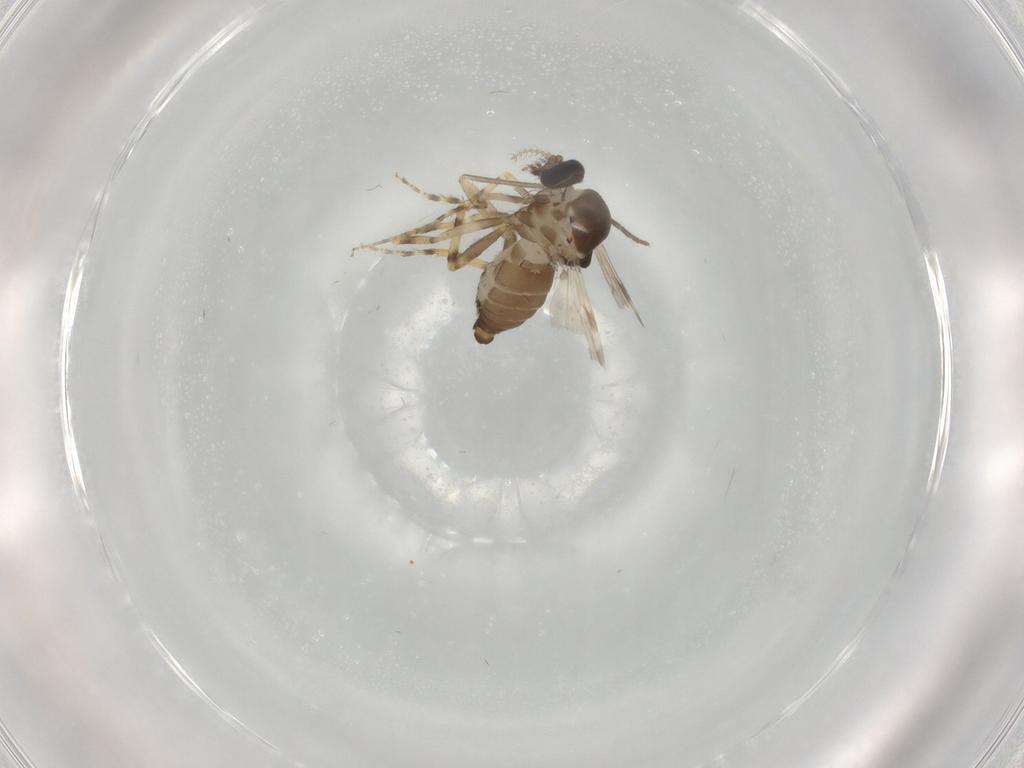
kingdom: Animalia
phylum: Arthropoda
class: Insecta
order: Diptera
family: Ceratopogonidae
